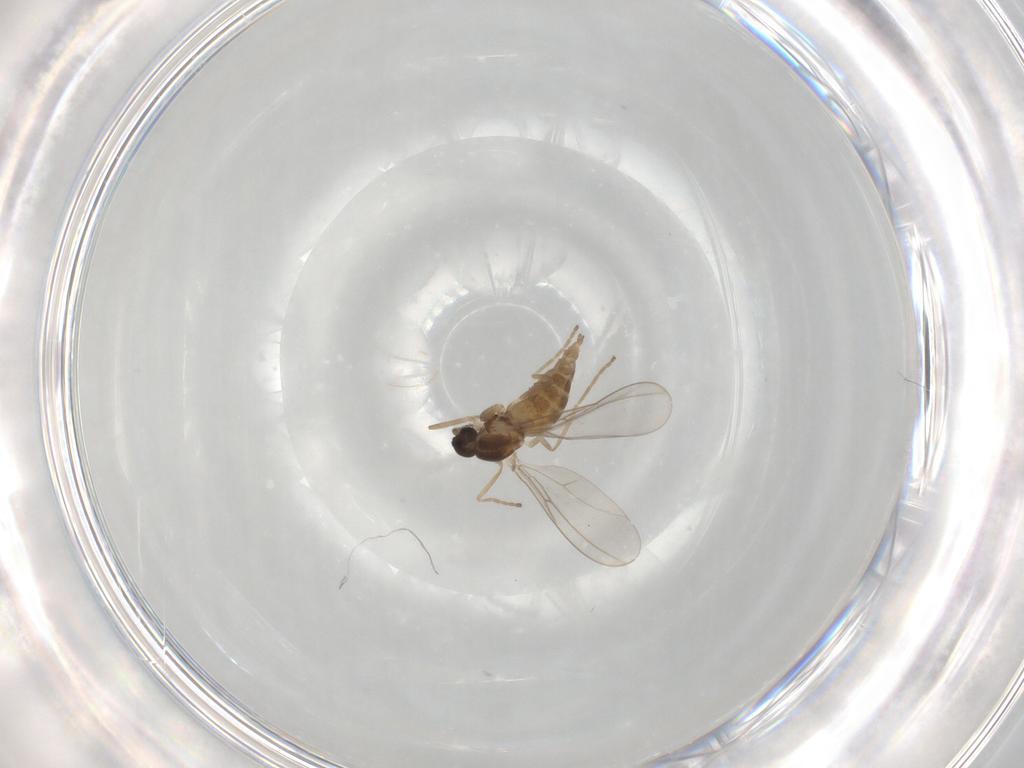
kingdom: Animalia
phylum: Arthropoda
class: Insecta
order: Diptera
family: Cecidomyiidae
